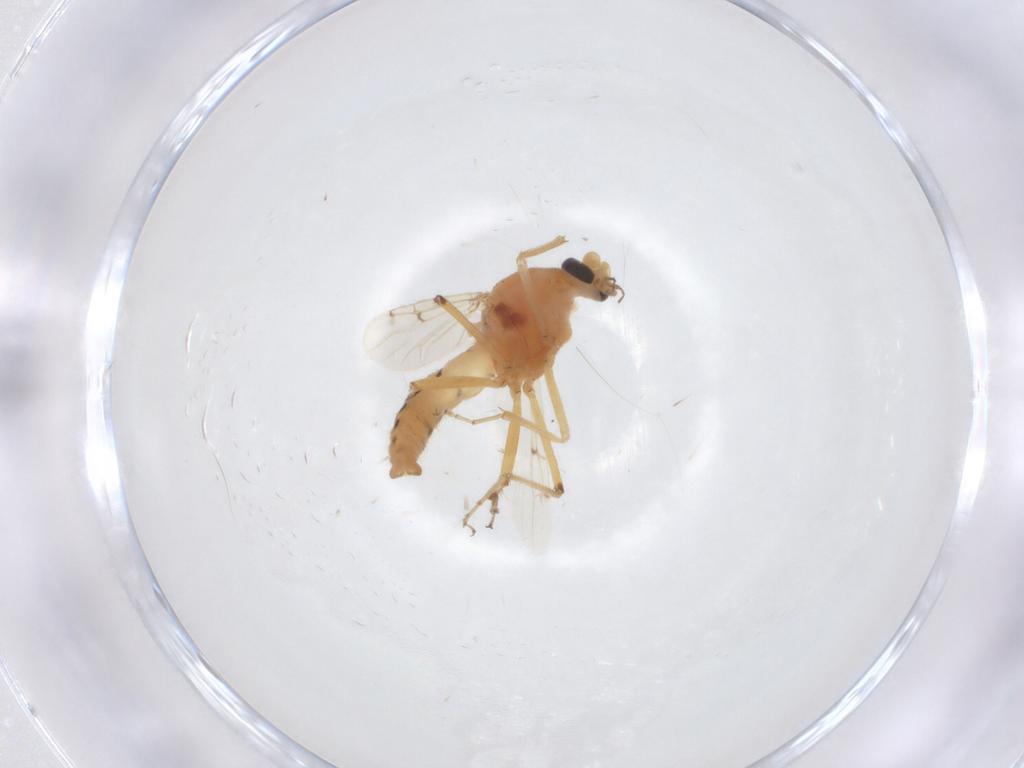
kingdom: Animalia
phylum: Arthropoda
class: Insecta
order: Diptera
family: Ceratopogonidae
